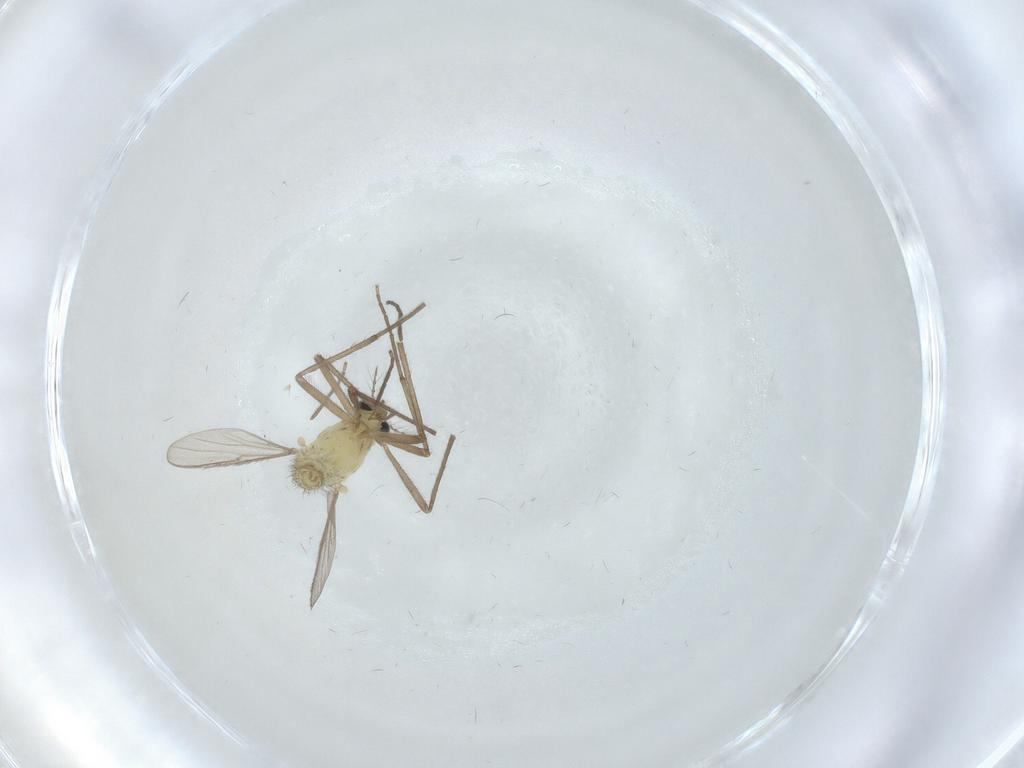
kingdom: Animalia
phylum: Arthropoda
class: Insecta
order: Diptera
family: Chironomidae
